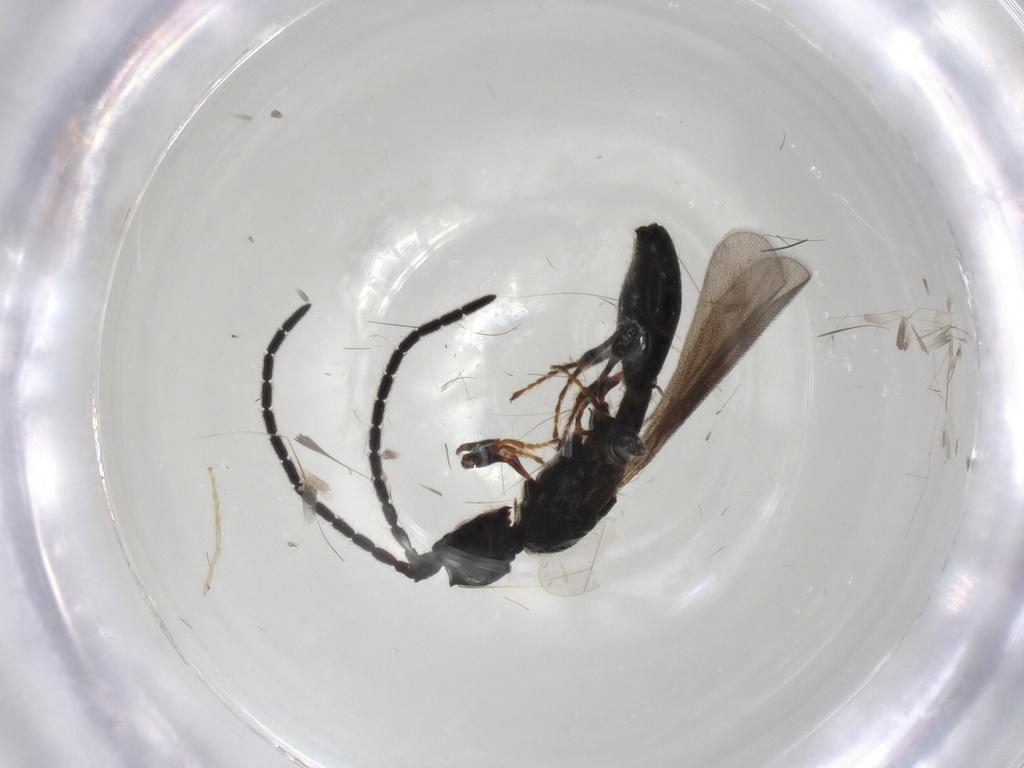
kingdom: Animalia
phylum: Arthropoda
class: Insecta
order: Hymenoptera
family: Diapriidae
